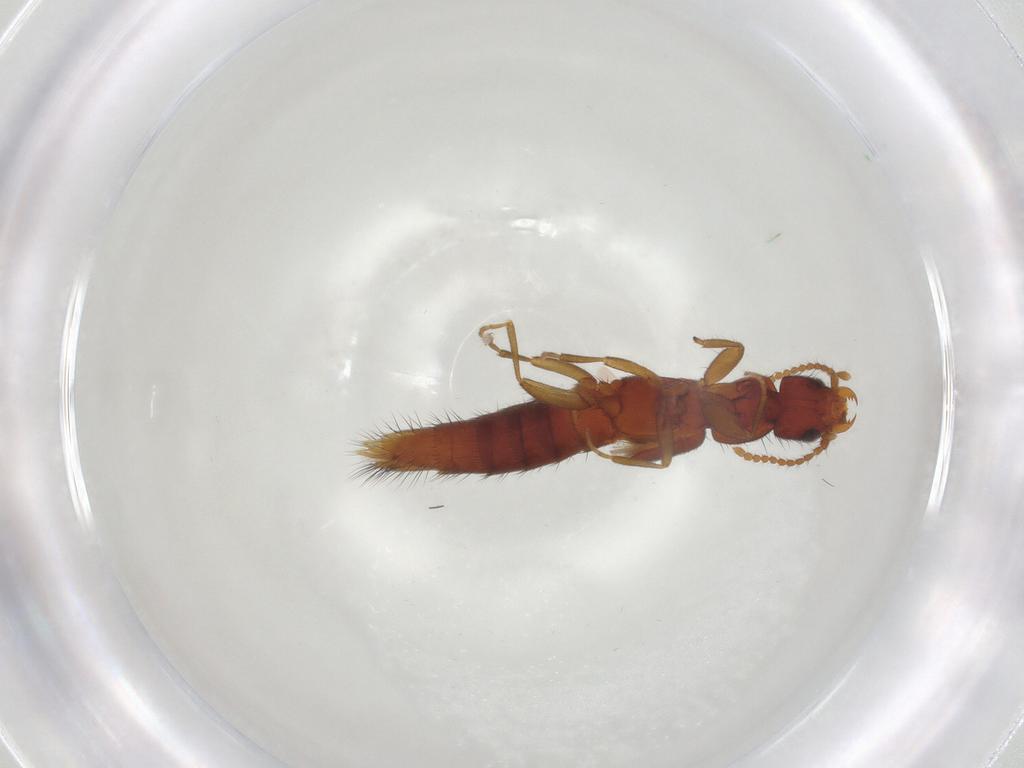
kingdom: Animalia
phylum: Arthropoda
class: Insecta
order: Coleoptera
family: Staphylinidae
